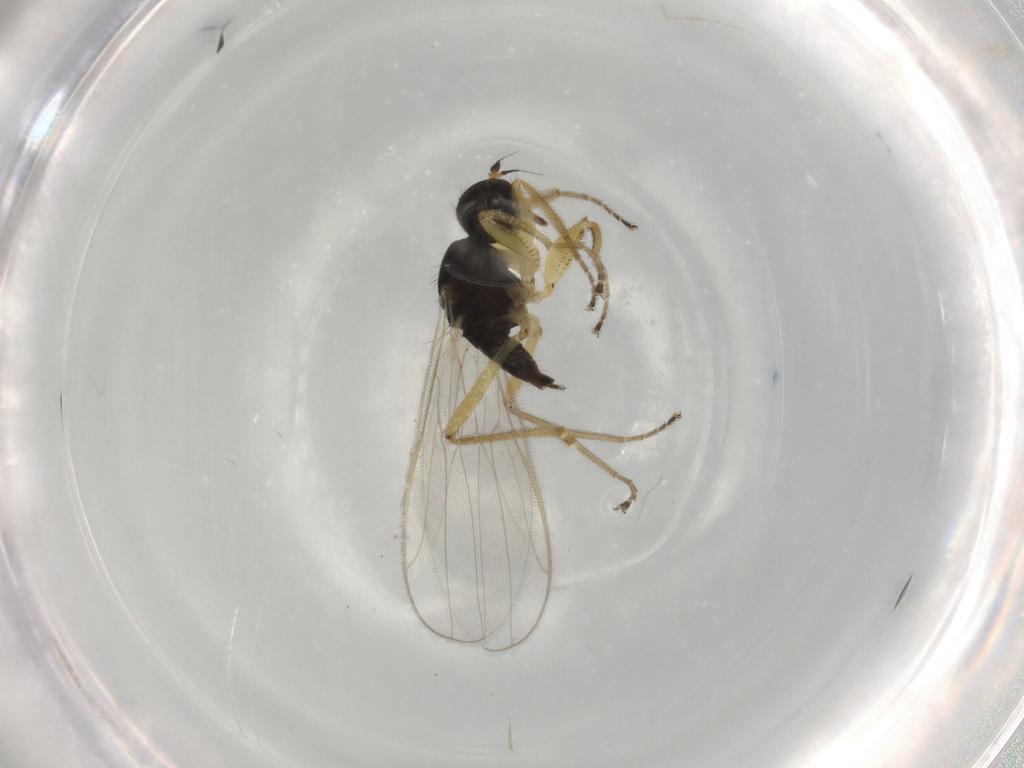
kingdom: Animalia
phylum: Arthropoda
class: Insecta
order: Diptera
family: Hybotidae
